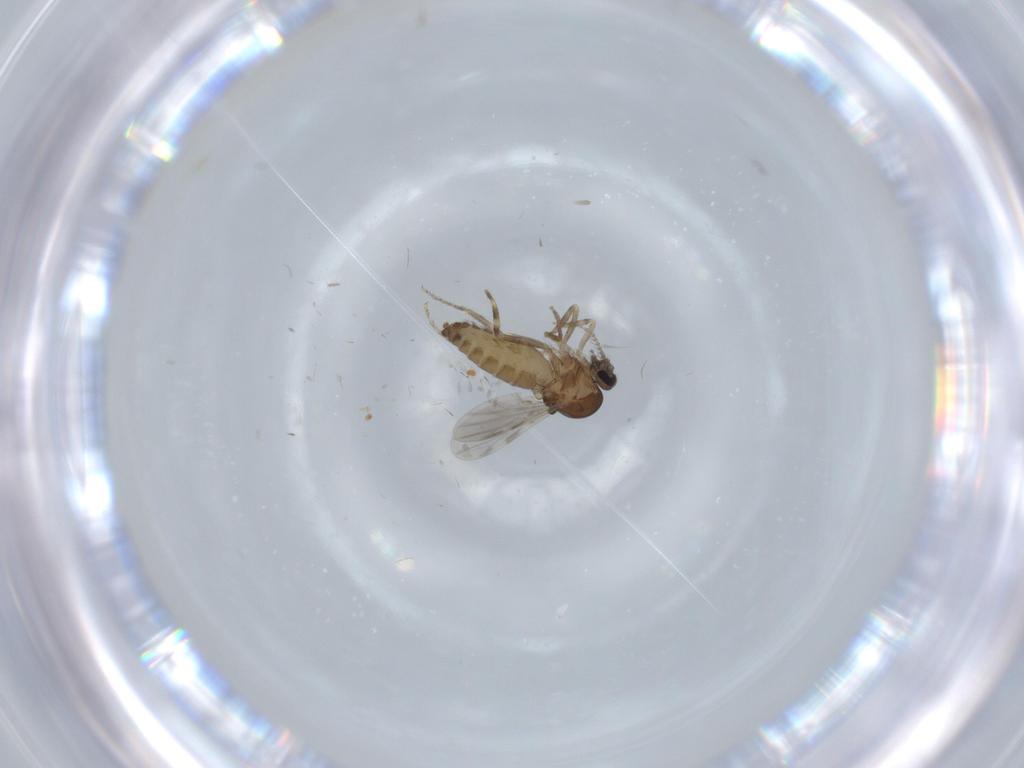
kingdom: Animalia
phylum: Arthropoda
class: Insecta
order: Diptera
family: Ceratopogonidae
